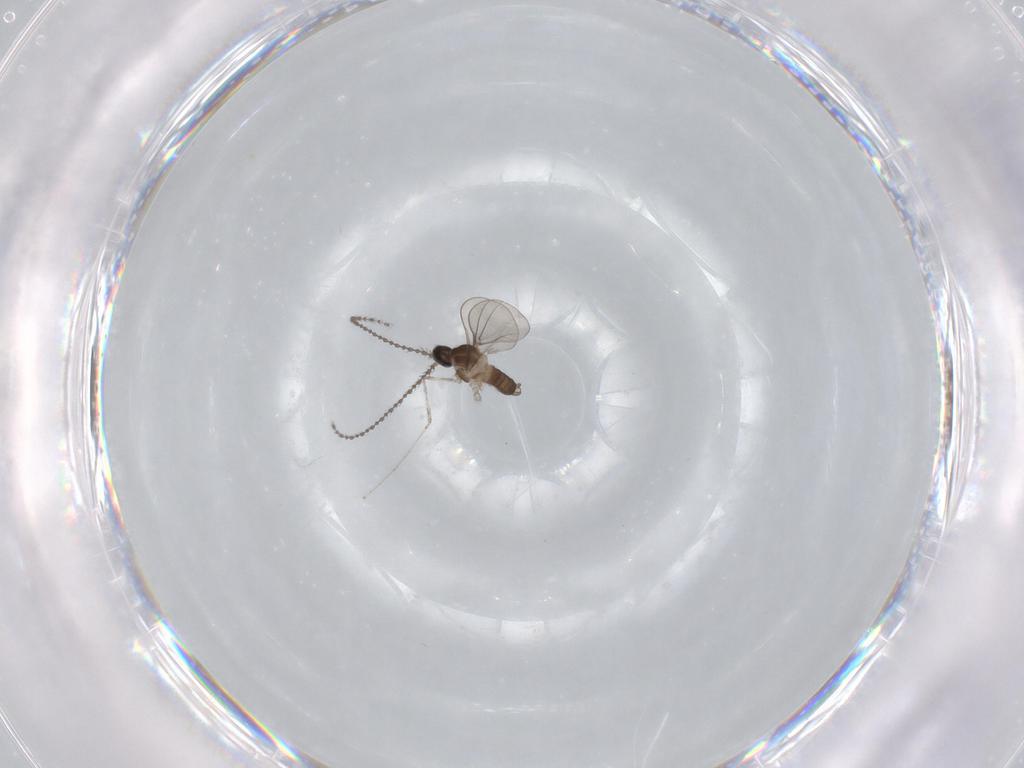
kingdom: Animalia
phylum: Arthropoda
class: Insecta
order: Diptera
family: Cecidomyiidae
